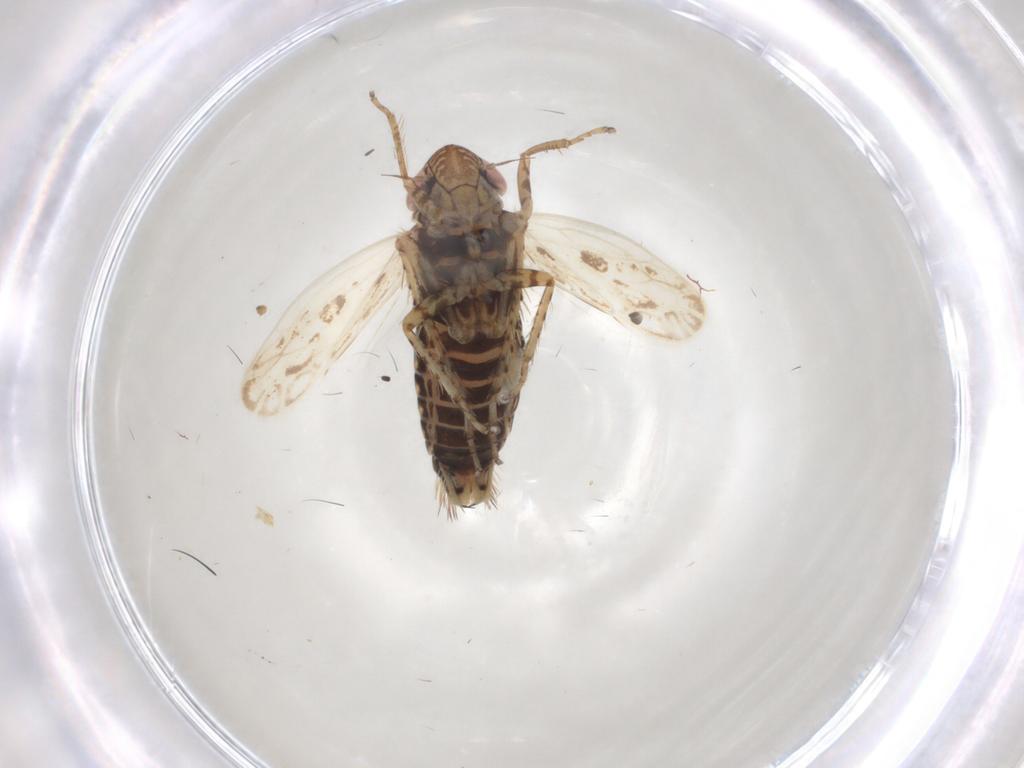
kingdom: Animalia
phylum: Arthropoda
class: Insecta
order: Hemiptera
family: Cicadellidae
